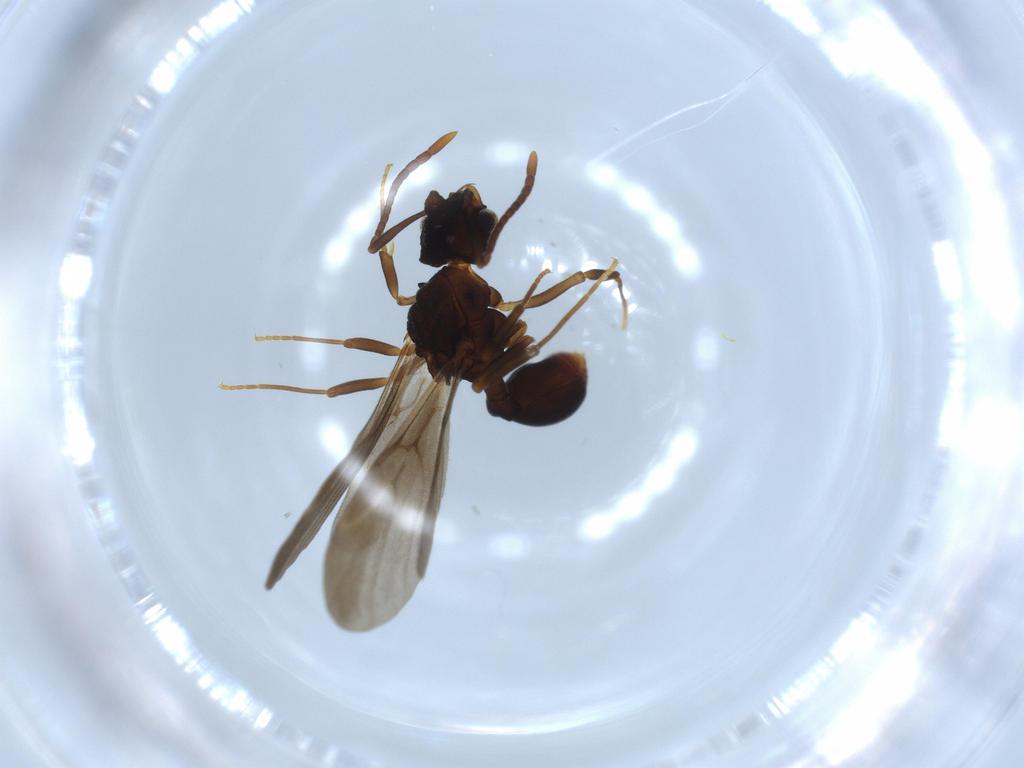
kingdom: Animalia
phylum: Arthropoda
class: Insecta
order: Hymenoptera
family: Formicidae
